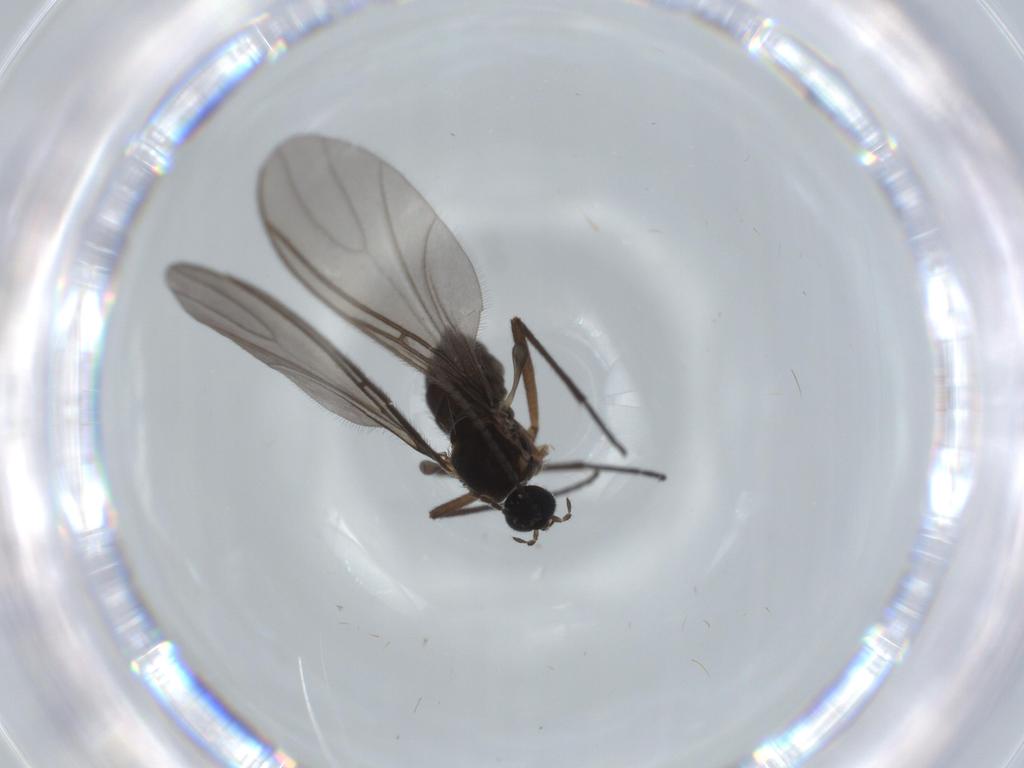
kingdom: Animalia
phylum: Arthropoda
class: Insecta
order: Diptera
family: Sciaridae
